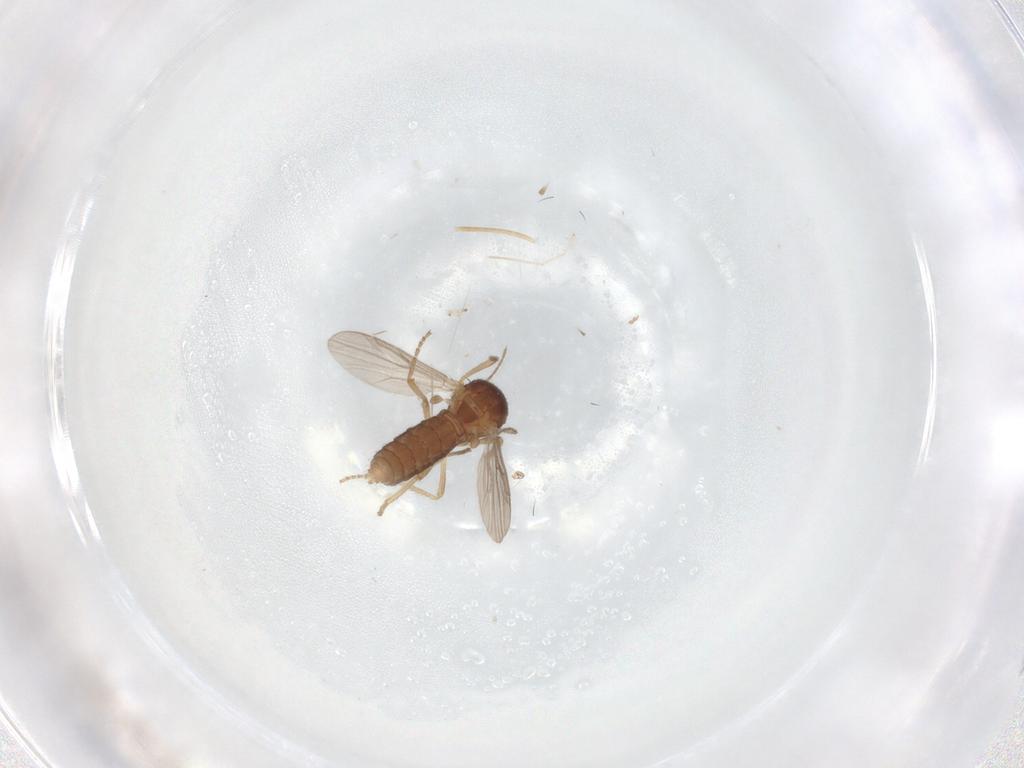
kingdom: Animalia
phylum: Arthropoda
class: Insecta
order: Diptera
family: Ceratopogonidae
